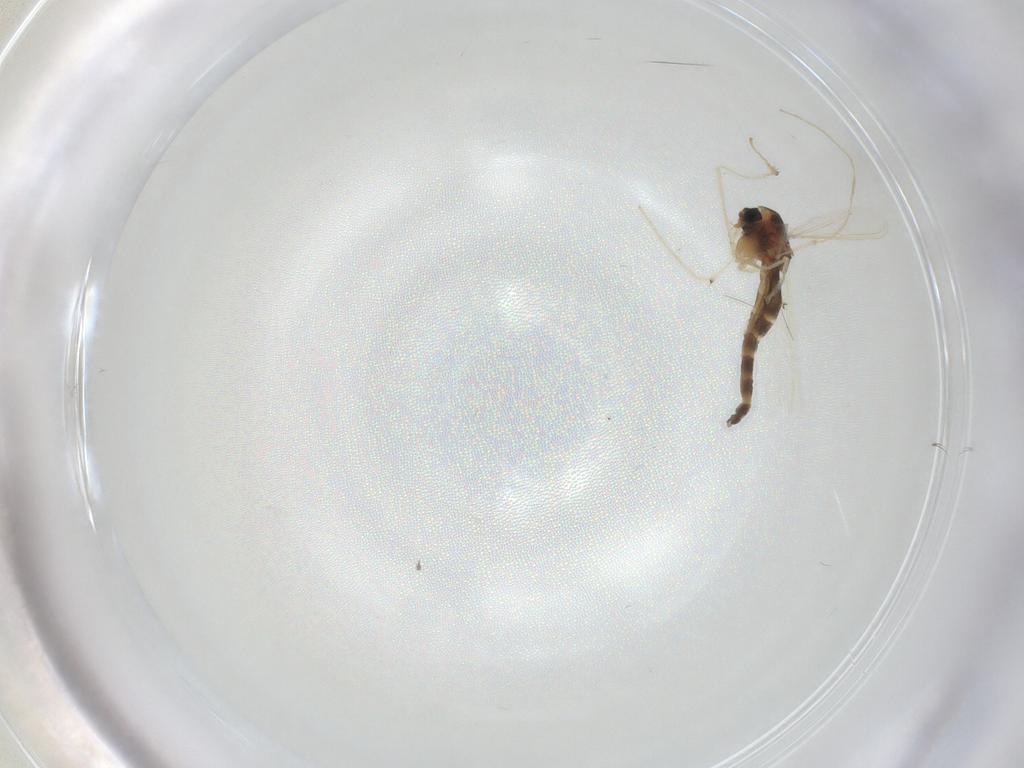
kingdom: Animalia
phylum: Arthropoda
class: Insecta
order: Diptera
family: Chironomidae
